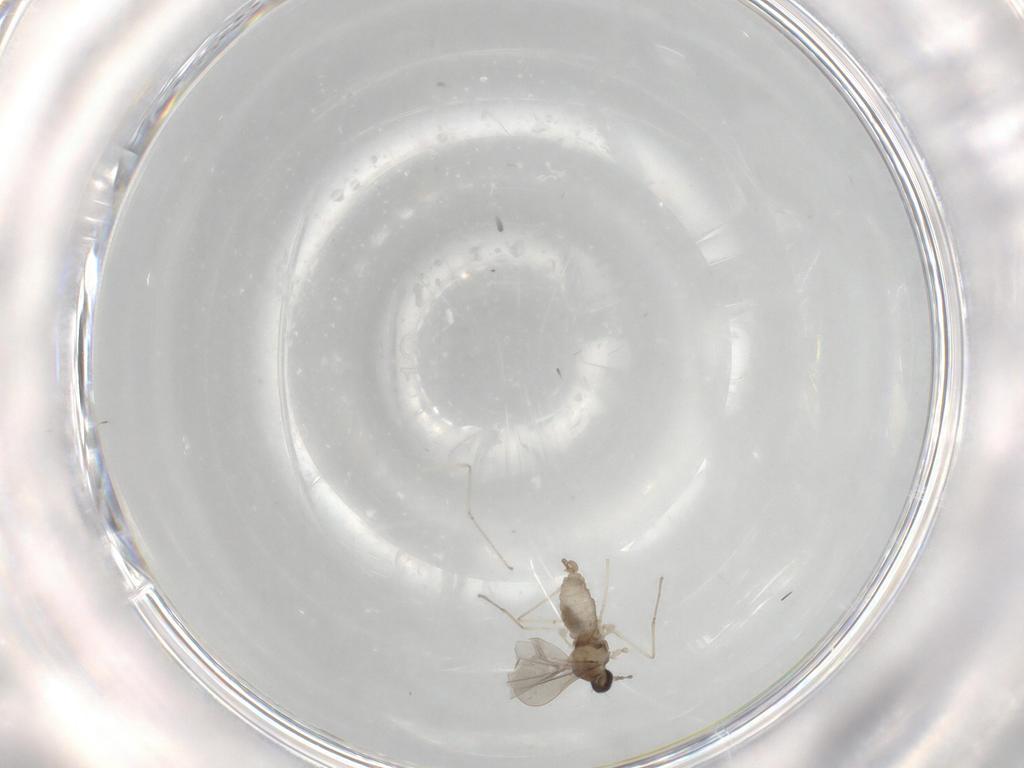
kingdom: Animalia
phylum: Arthropoda
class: Insecta
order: Diptera
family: Cecidomyiidae
